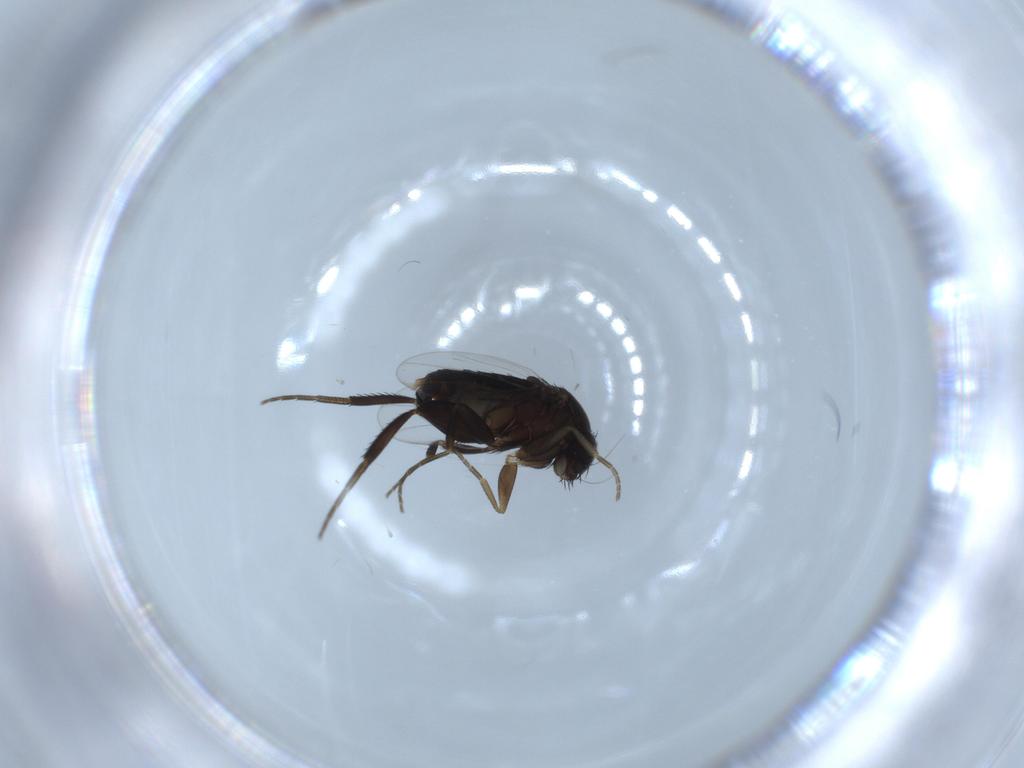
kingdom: Animalia
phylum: Arthropoda
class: Insecta
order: Diptera
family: Phoridae
